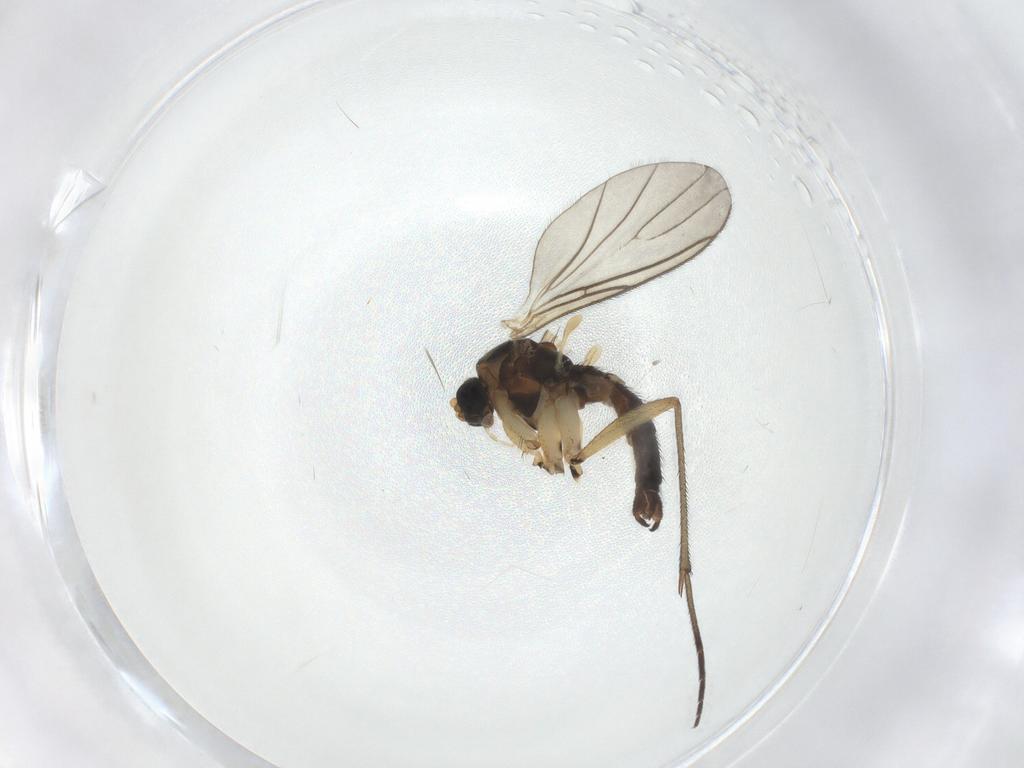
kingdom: Animalia
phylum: Arthropoda
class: Insecta
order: Diptera
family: Sciaridae
